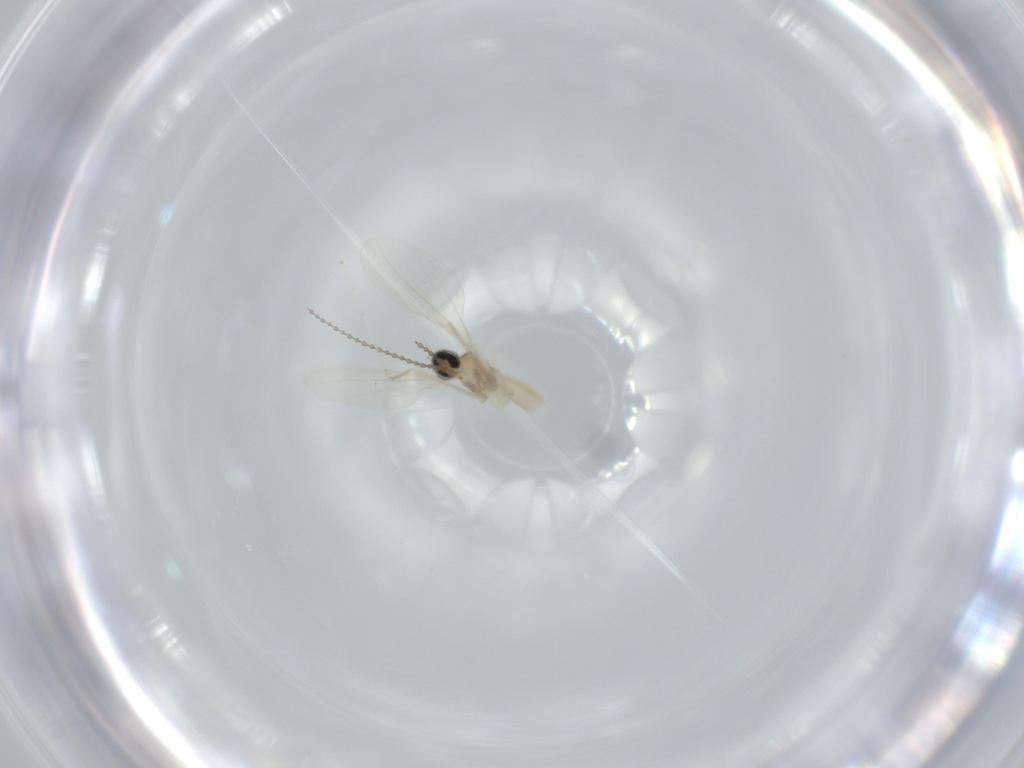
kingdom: Animalia
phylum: Arthropoda
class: Insecta
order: Diptera
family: Cecidomyiidae
